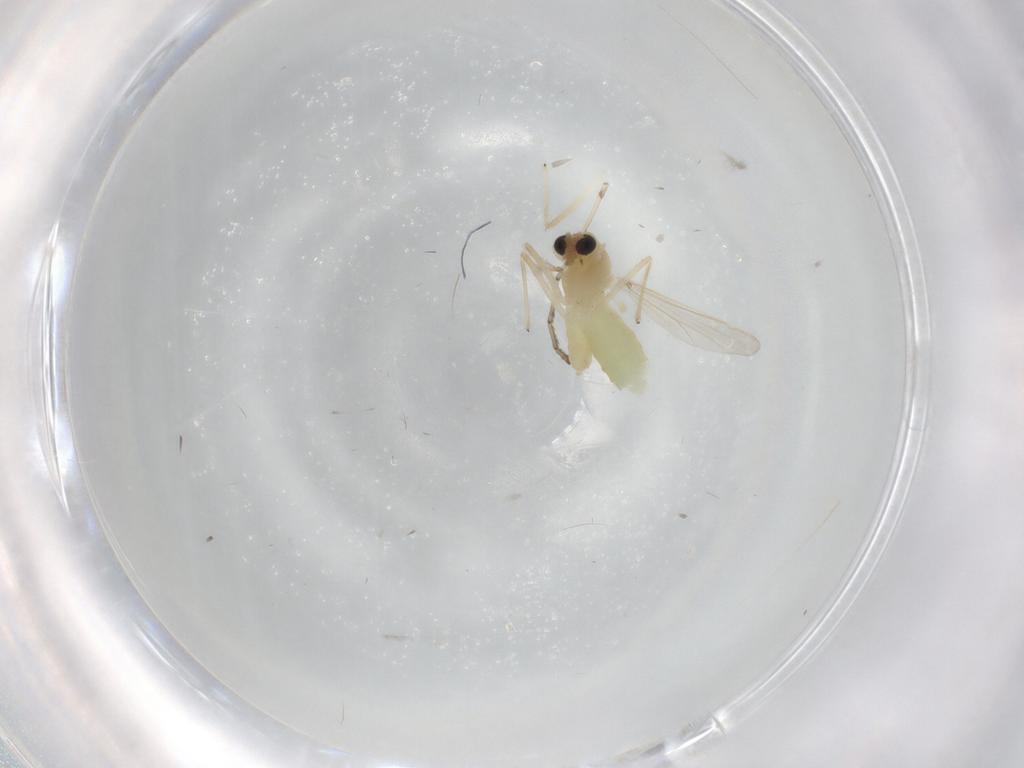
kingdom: Animalia
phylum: Arthropoda
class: Insecta
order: Diptera
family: Chironomidae
